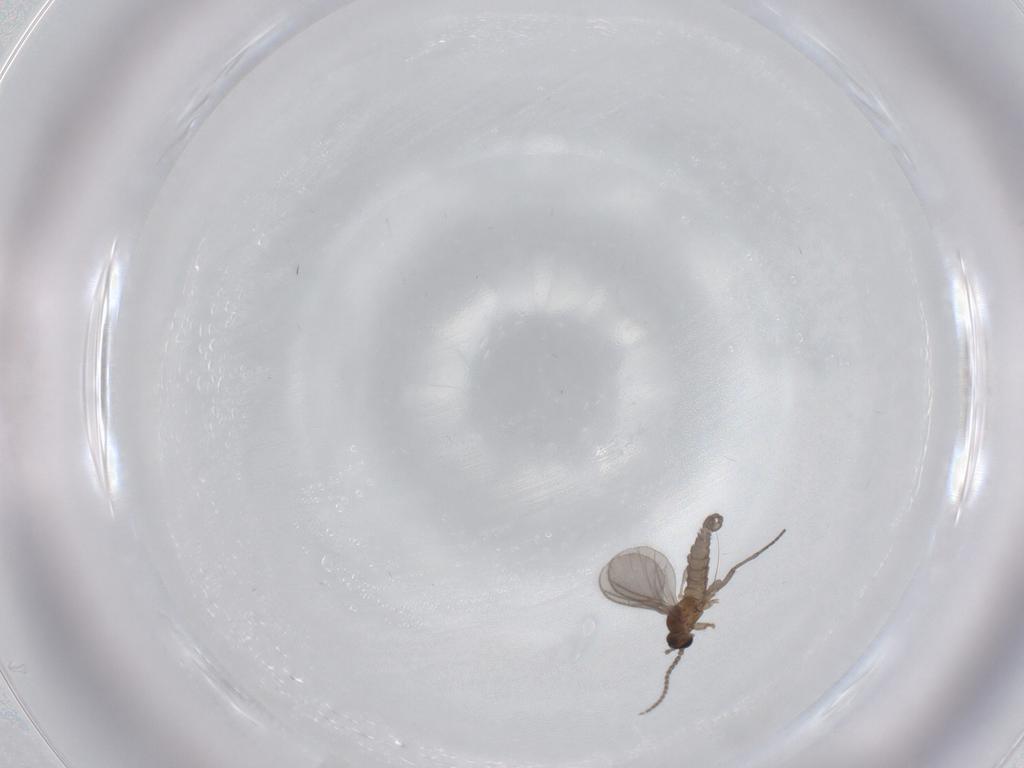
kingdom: Animalia
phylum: Arthropoda
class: Insecta
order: Diptera
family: Sciaridae
